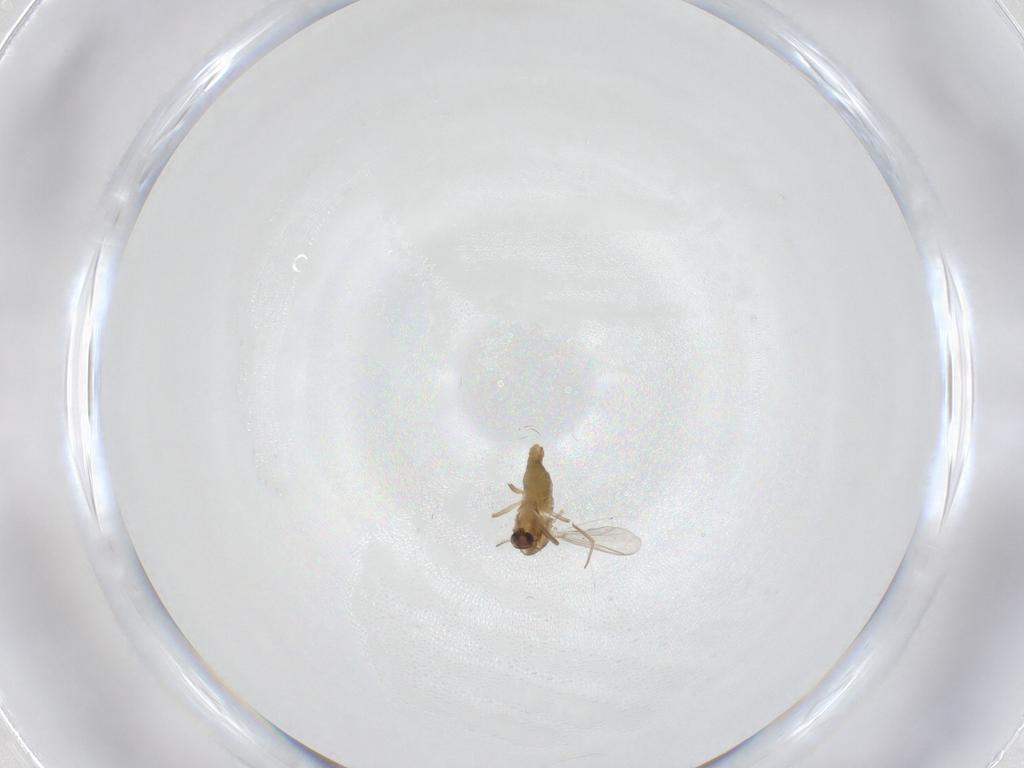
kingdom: Animalia
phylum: Arthropoda
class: Insecta
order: Diptera
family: Chironomidae
